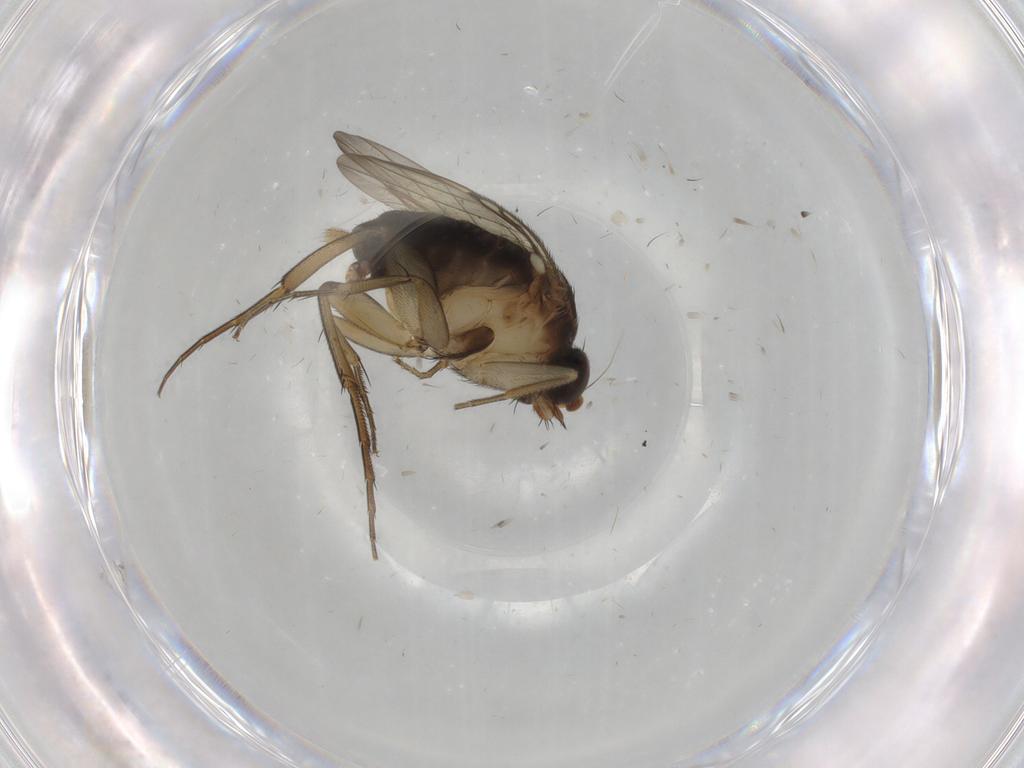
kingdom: Animalia
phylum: Arthropoda
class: Insecta
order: Diptera
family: Phoridae
